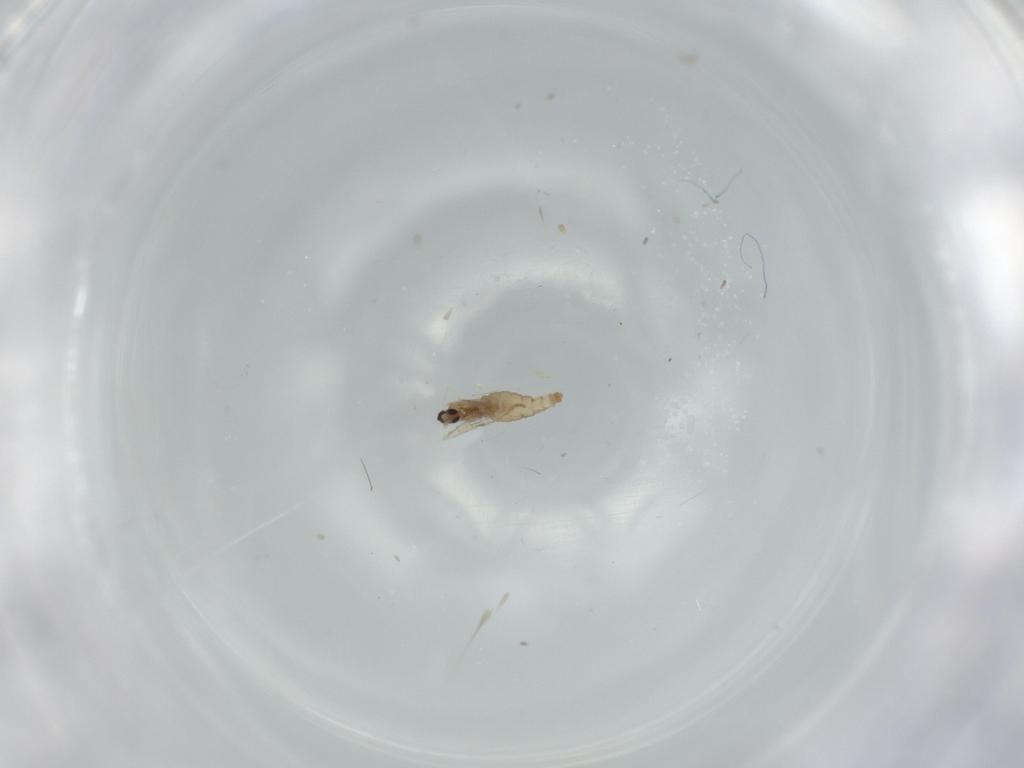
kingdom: Animalia
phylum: Arthropoda
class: Insecta
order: Diptera
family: Cecidomyiidae
